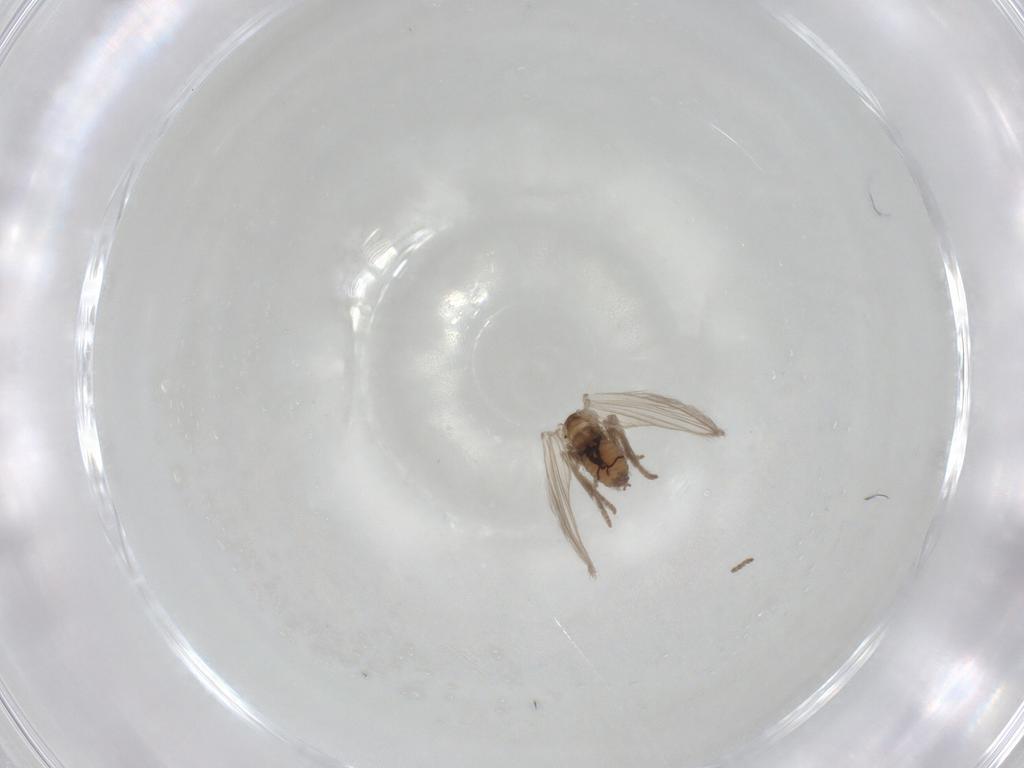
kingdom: Animalia
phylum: Arthropoda
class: Insecta
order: Diptera
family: Psychodidae
